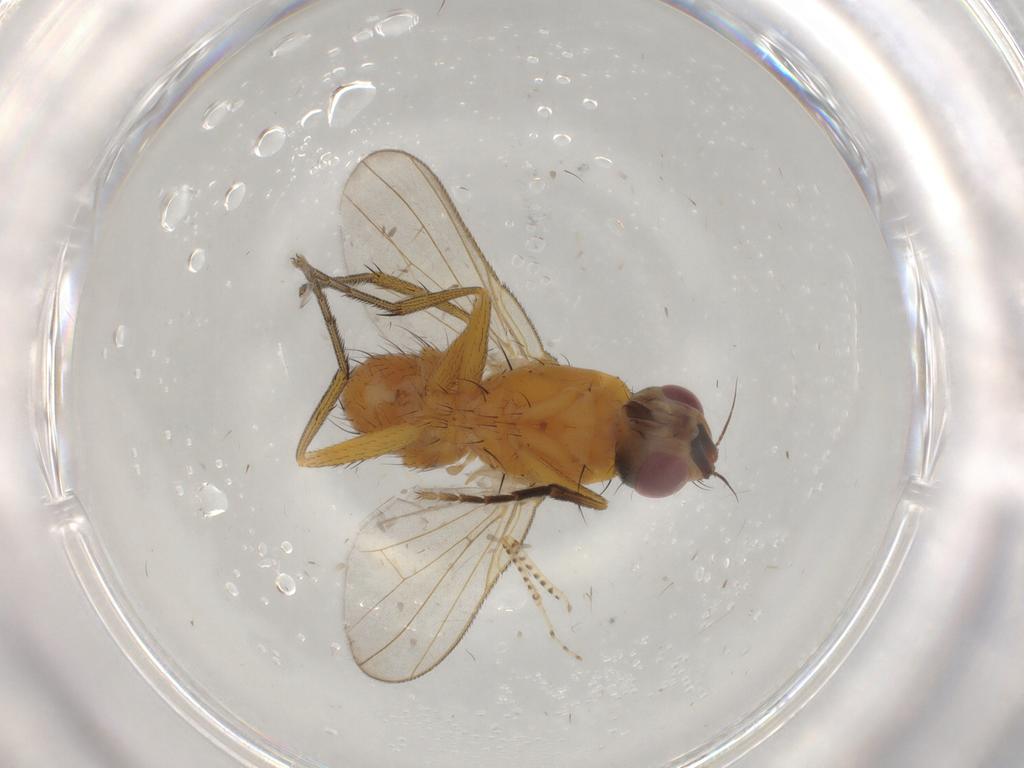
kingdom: Animalia
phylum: Arthropoda
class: Insecta
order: Diptera
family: Muscidae
